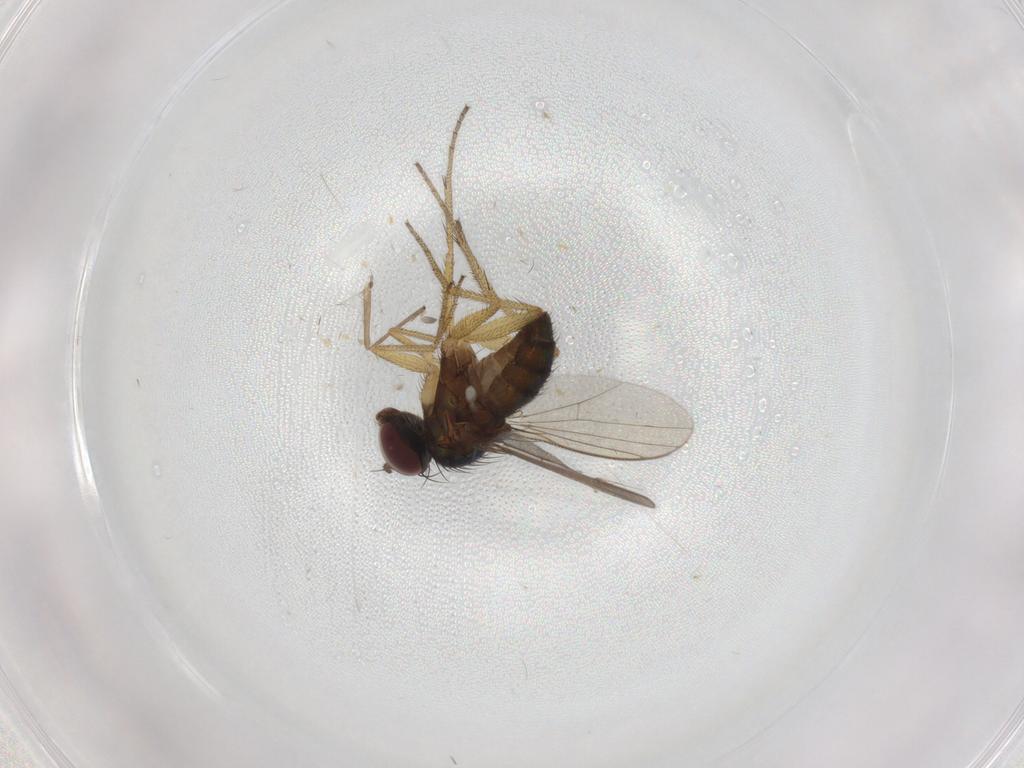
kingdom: Animalia
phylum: Arthropoda
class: Insecta
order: Diptera
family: Chironomidae
